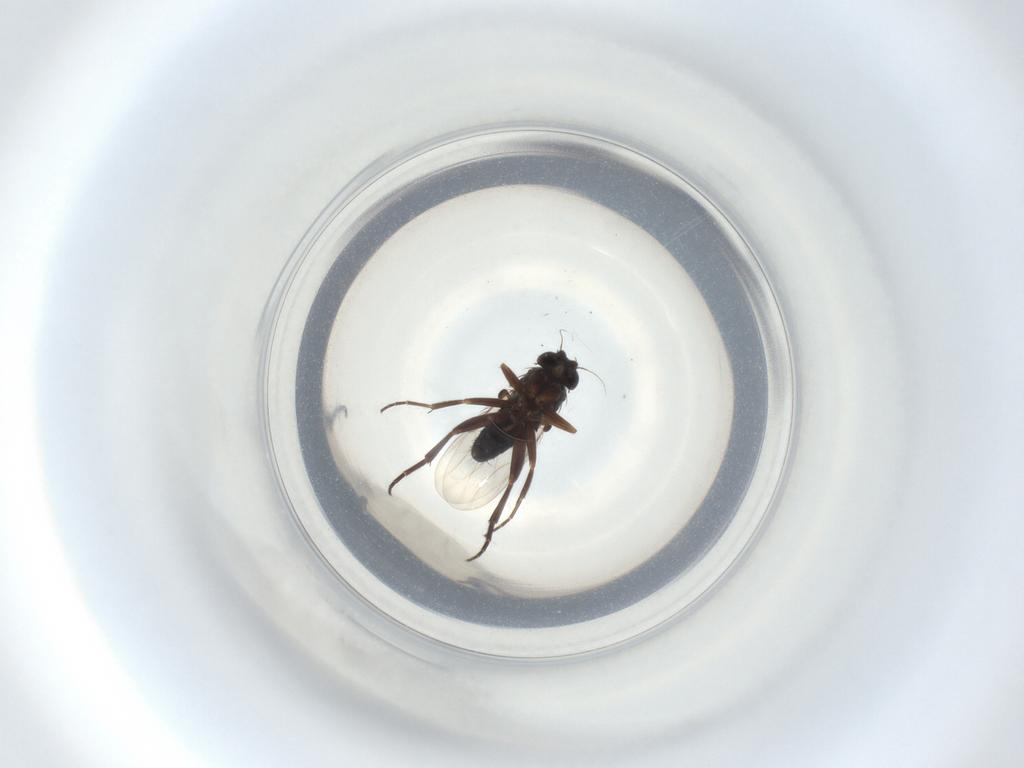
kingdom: Animalia
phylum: Arthropoda
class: Insecta
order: Diptera
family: Phoridae
